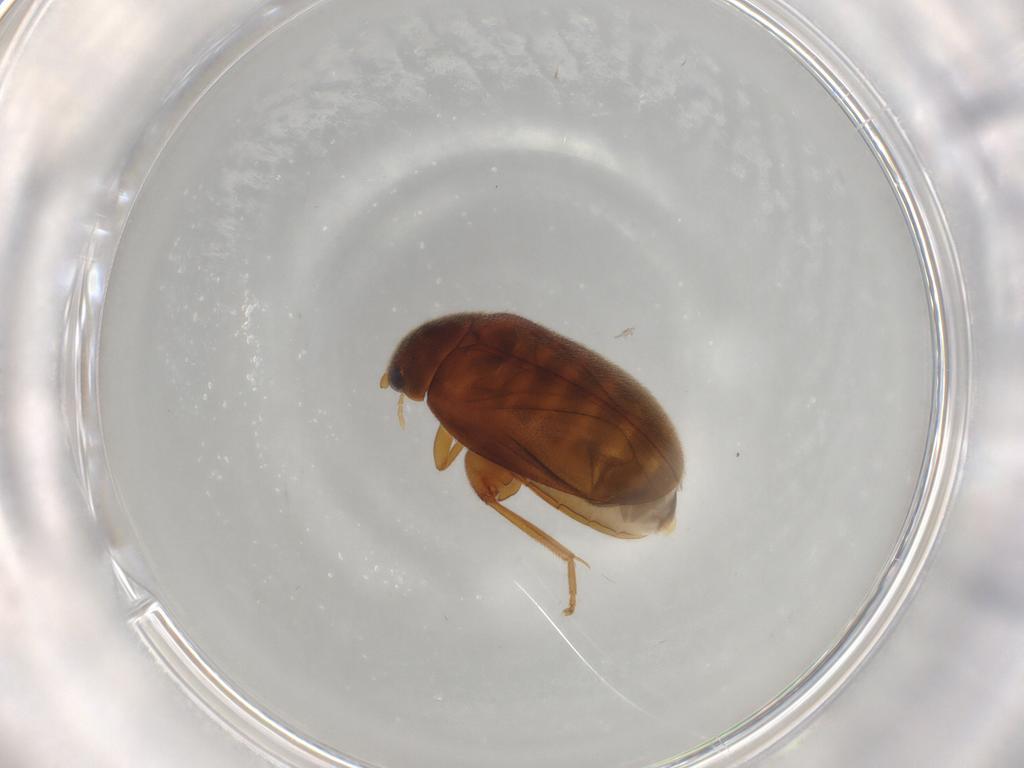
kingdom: Animalia
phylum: Arthropoda
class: Insecta
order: Coleoptera
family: Scirtidae
